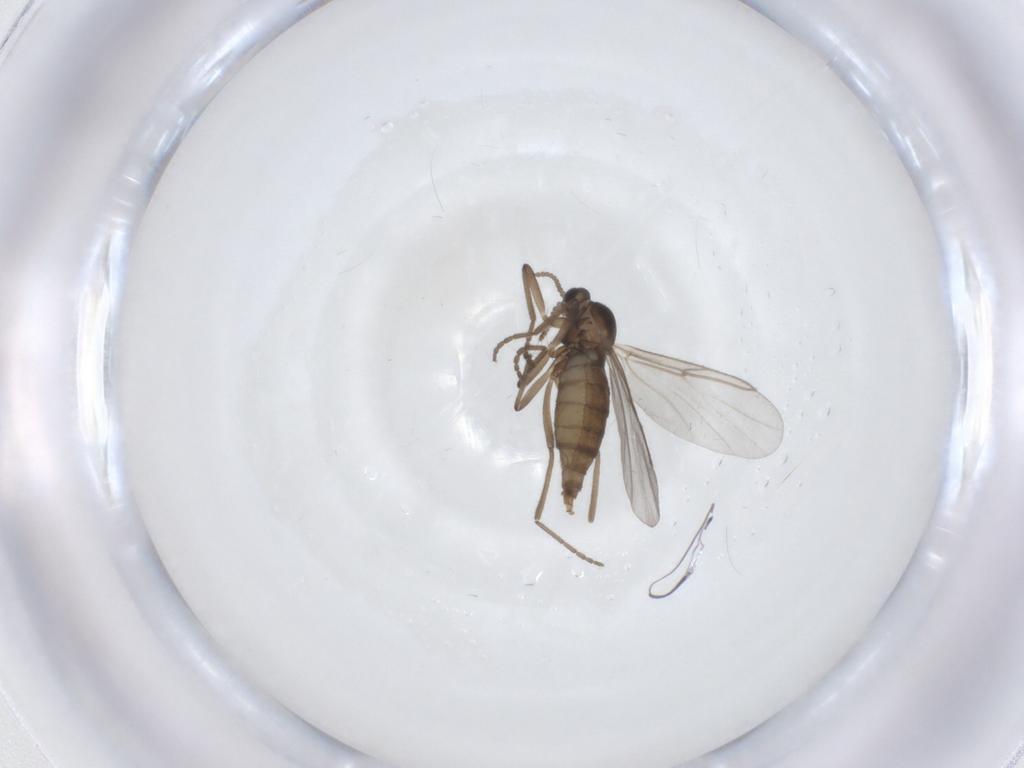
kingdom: Animalia
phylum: Arthropoda
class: Insecta
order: Diptera
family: Cecidomyiidae
